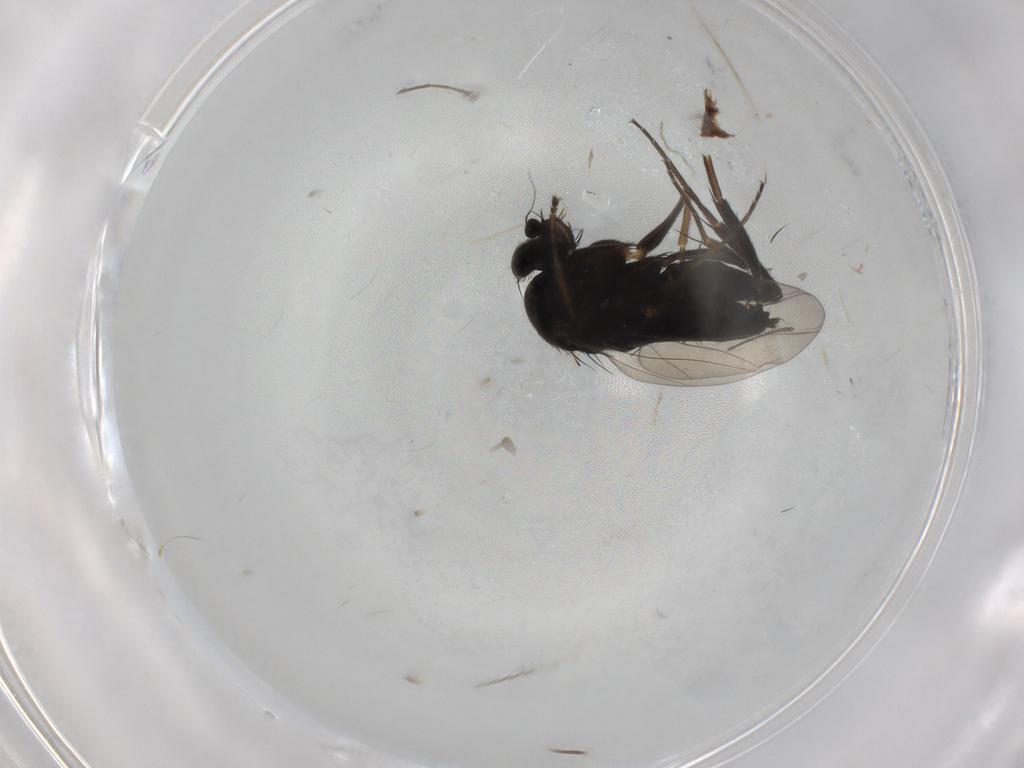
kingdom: Animalia
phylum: Arthropoda
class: Insecta
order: Diptera
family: Phoridae
